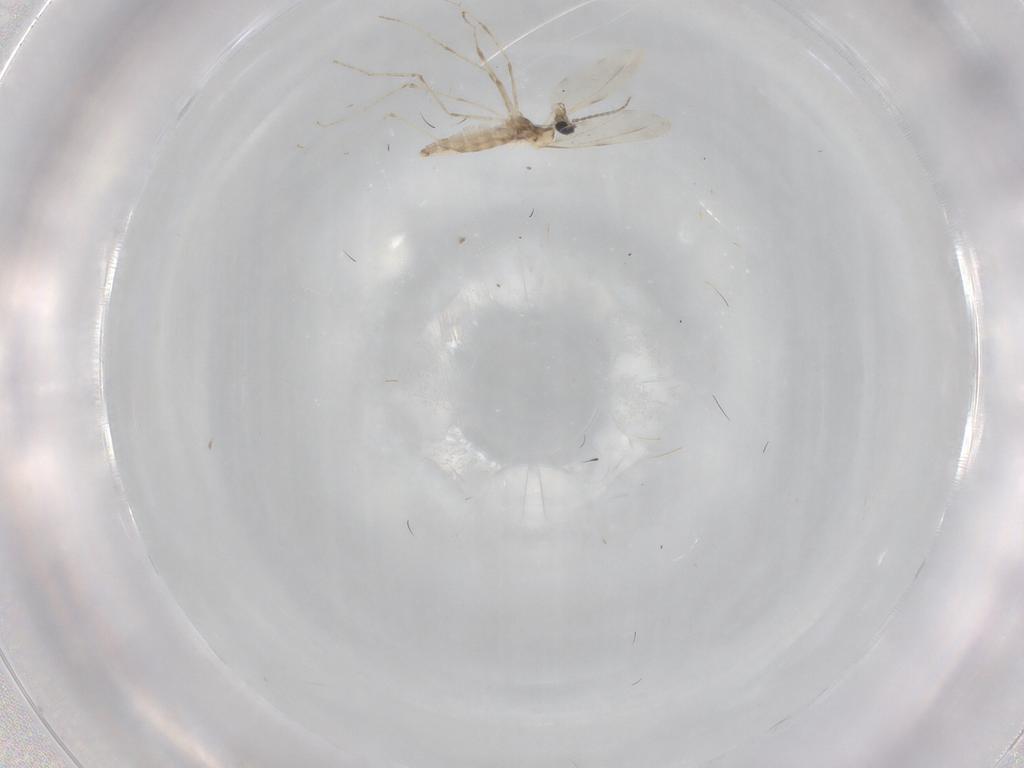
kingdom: Animalia
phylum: Arthropoda
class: Insecta
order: Diptera
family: Cecidomyiidae
